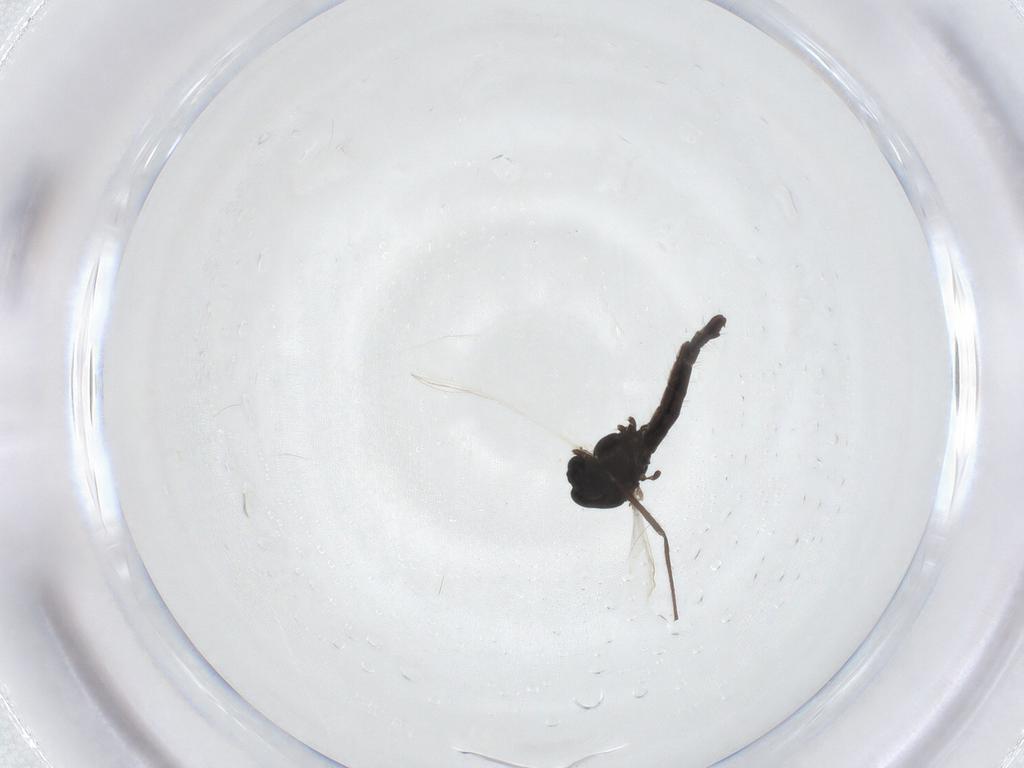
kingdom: Animalia
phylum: Arthropoda
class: Insecta
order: Diptera
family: Chironomidae
